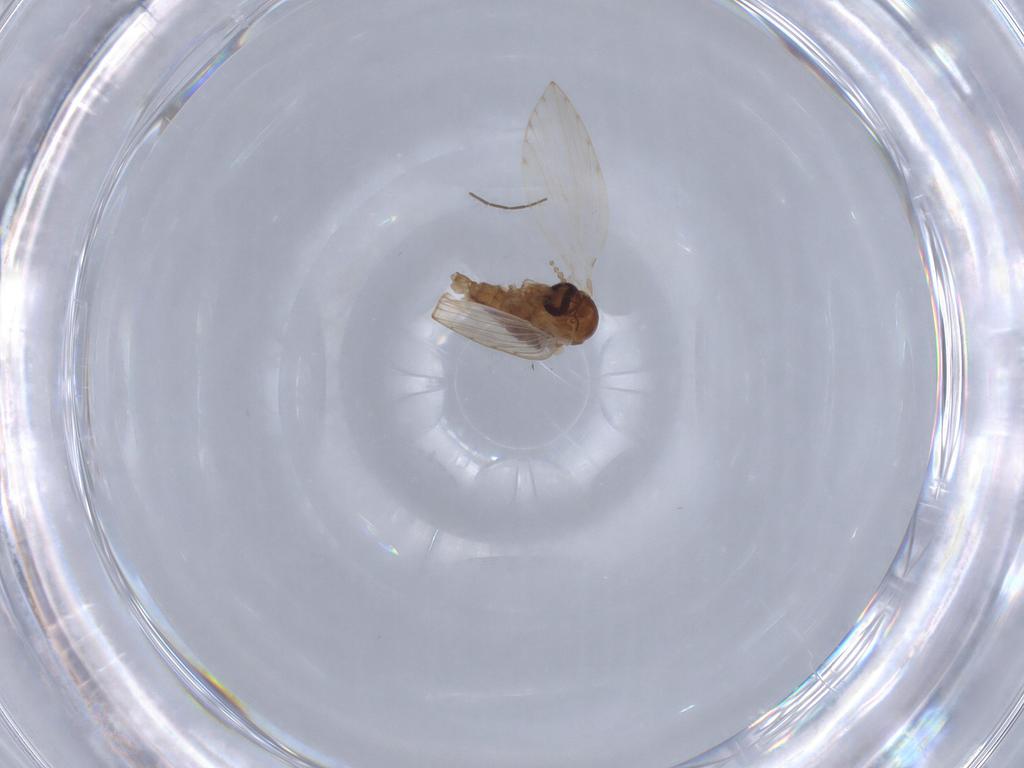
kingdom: Animalia
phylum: Arthropoda
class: Insecta
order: Diptera
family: Psychodidae
